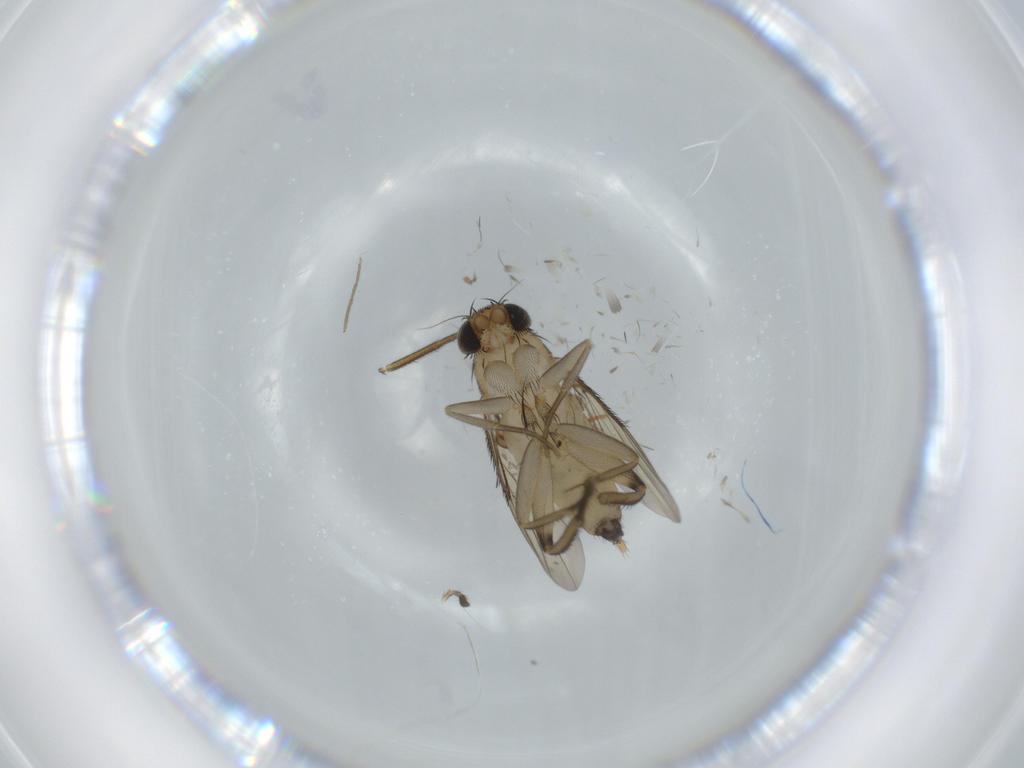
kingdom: Animalia
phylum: Arthropoda
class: Insecta
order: Diptera
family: Phoridae
